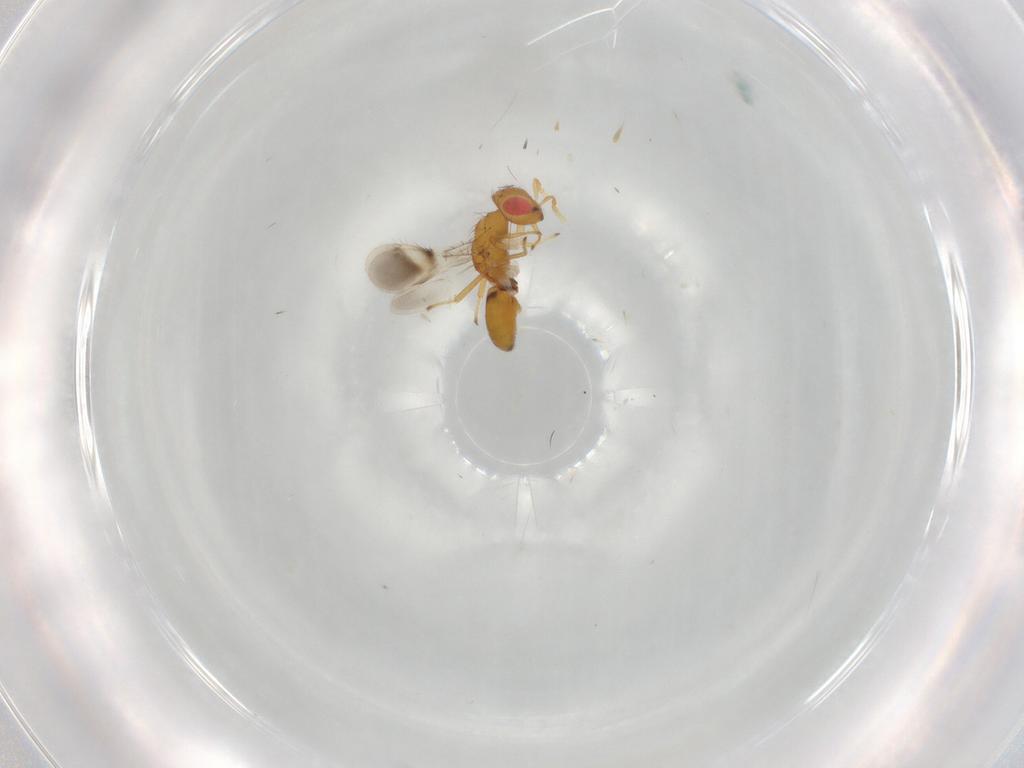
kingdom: Animalia
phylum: Arthropoda
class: Insecta
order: Hymenoptera
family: Eulophidae
